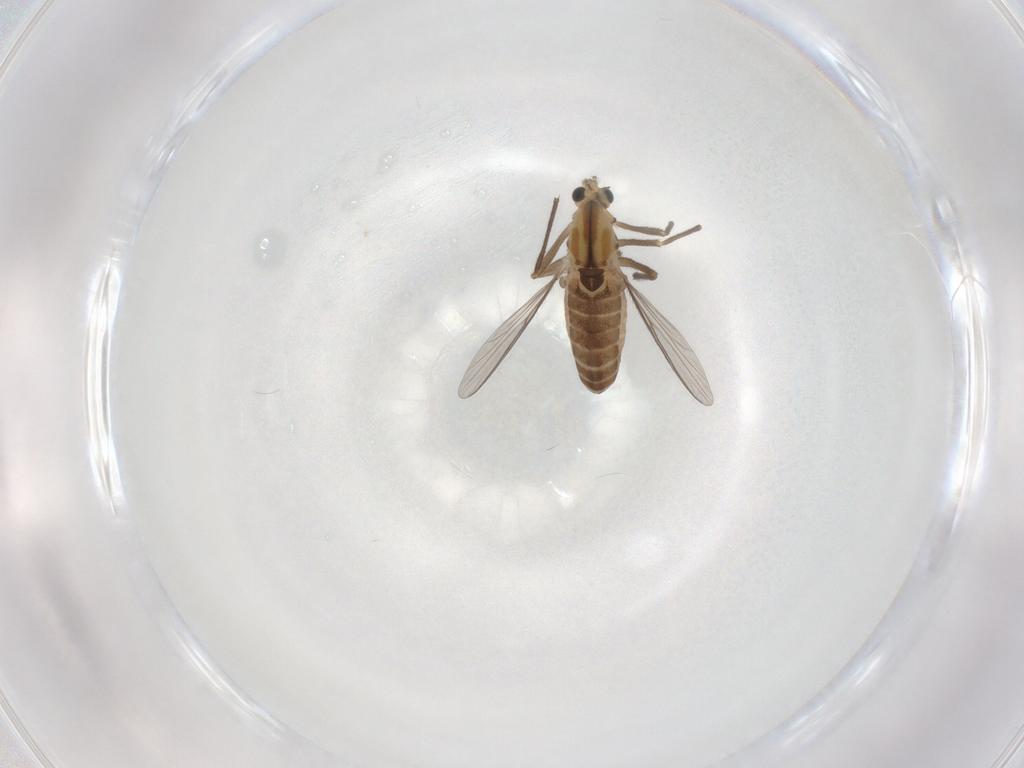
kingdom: Animalia
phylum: Arthropoda
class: Insecta
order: Diptera
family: Chironomidae
